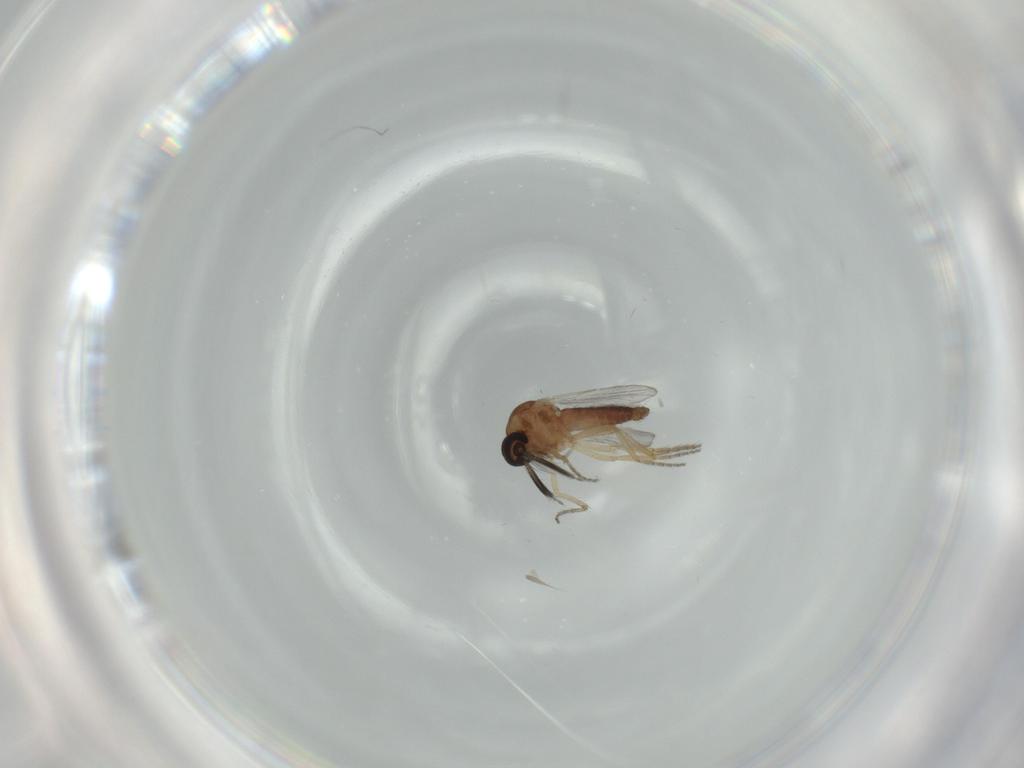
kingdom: Animalia
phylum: Arthropoda
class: Insecta
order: Diptera
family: Ceratopogonidae
